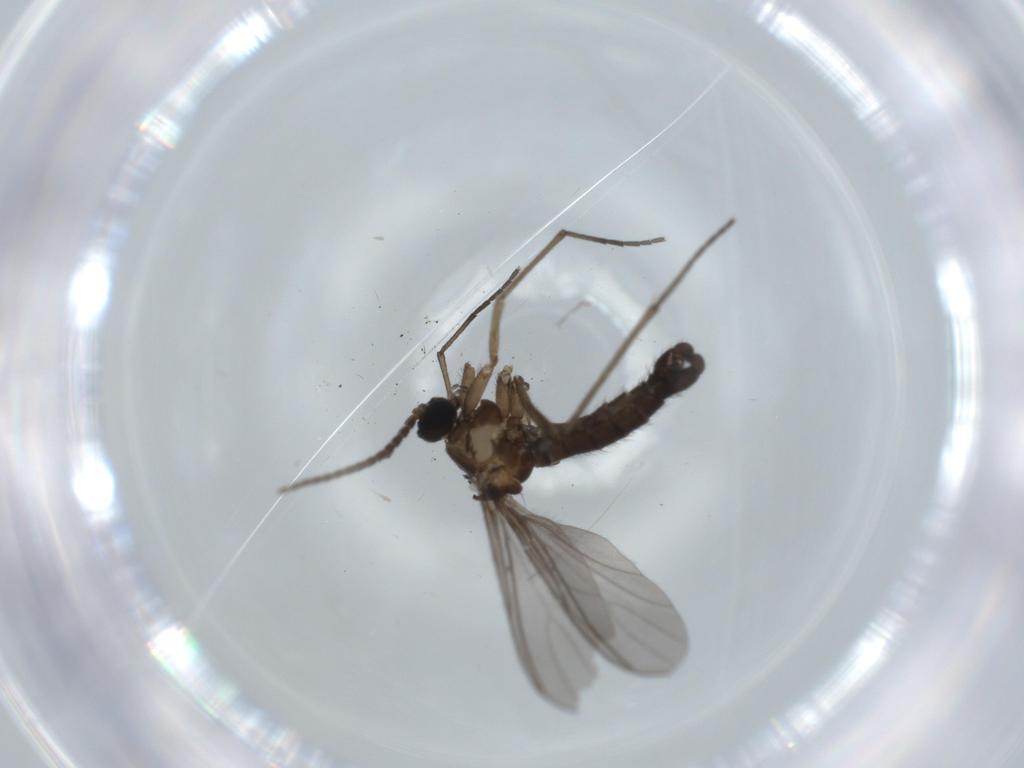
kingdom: Animalia
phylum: Arthropoda
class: Insecta
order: Diptera
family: Sciaridae
